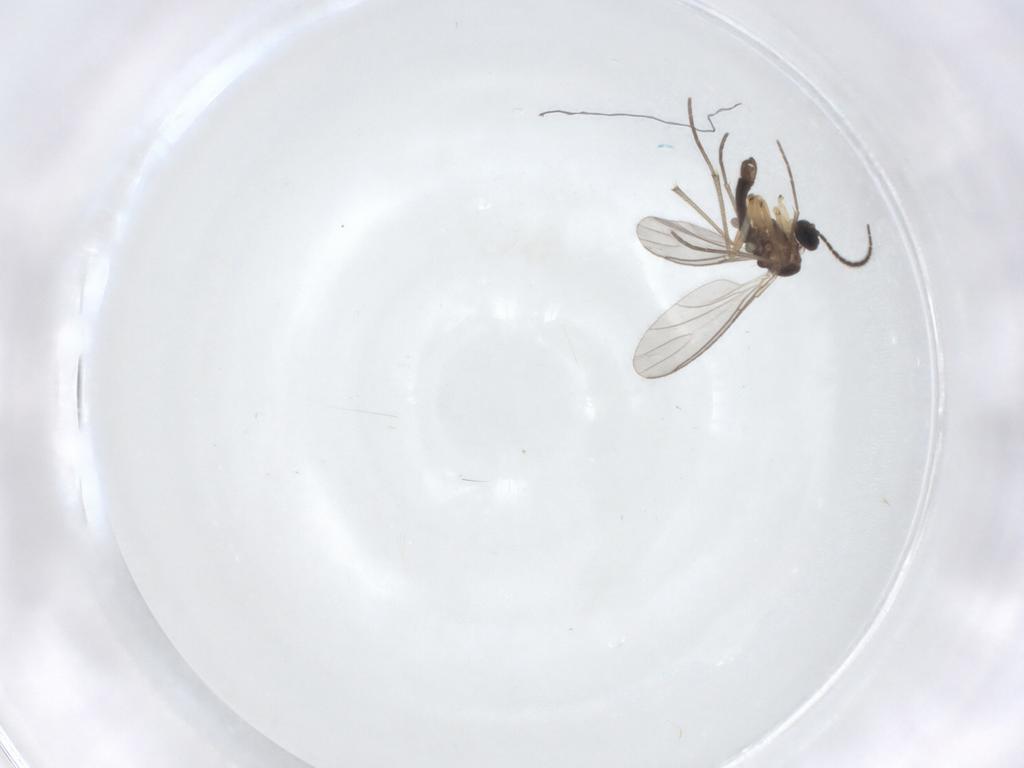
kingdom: Animalia
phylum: Arthropoda
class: Insecta
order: Diptera
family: Sciaridae
